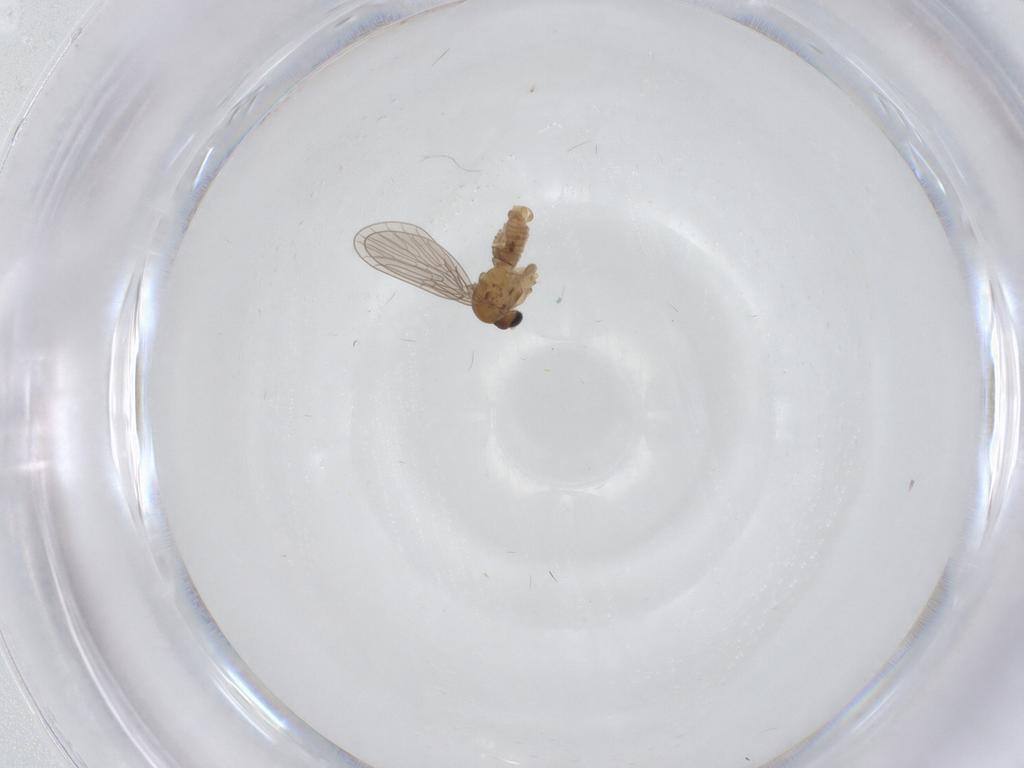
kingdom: Animalia
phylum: Arthropoda
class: Insecta
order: Diptera
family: Psychodidae
